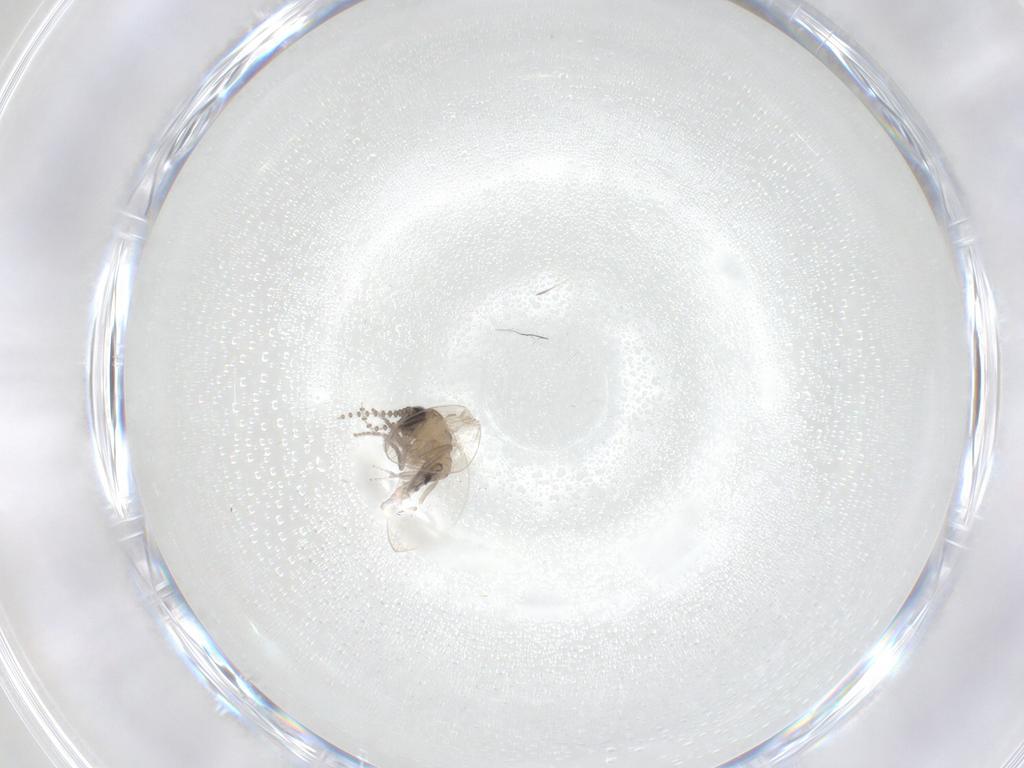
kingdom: Animalia
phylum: Arthropoda
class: Insecta
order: Diptera
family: Psychodidae
